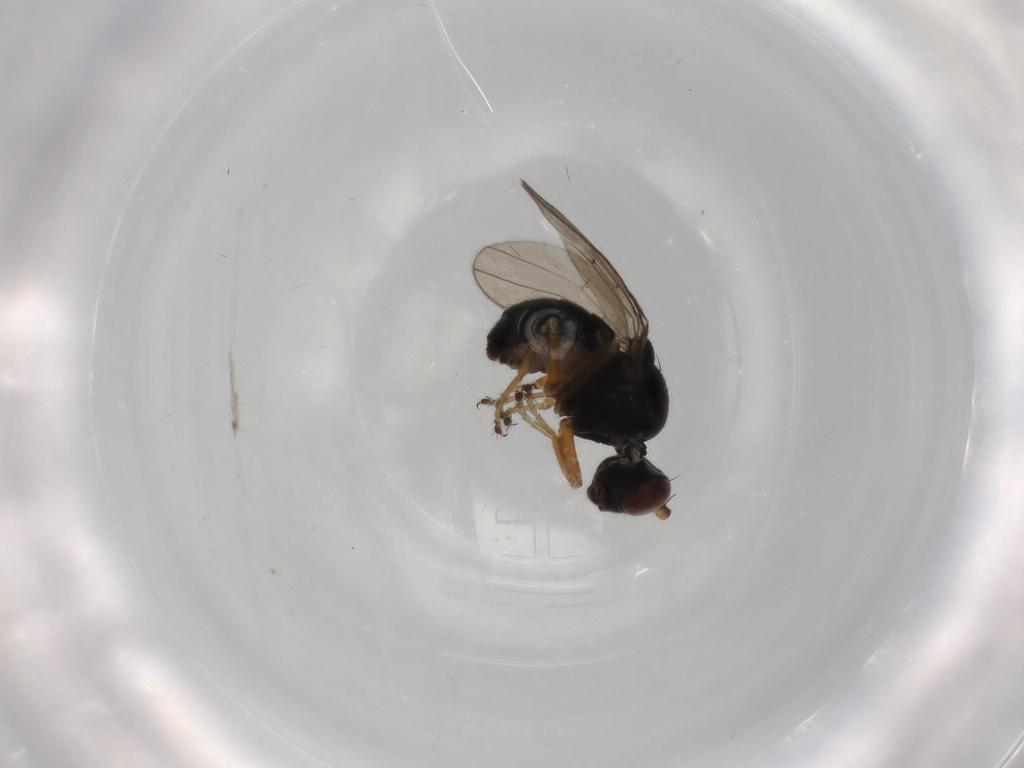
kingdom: Animalia
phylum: Arthropoda
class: Insecta
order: Diptera
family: Ephydridae
